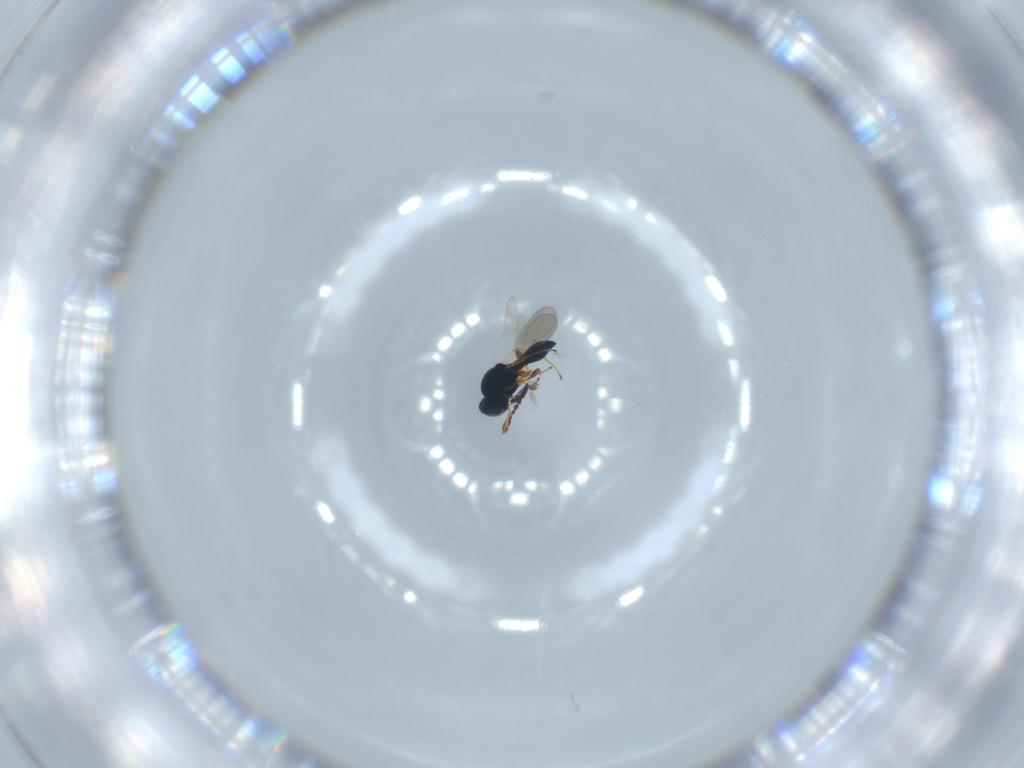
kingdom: Animalia
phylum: Arthropoda
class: Insecta
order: Hymenoptera
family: Platygastridae
